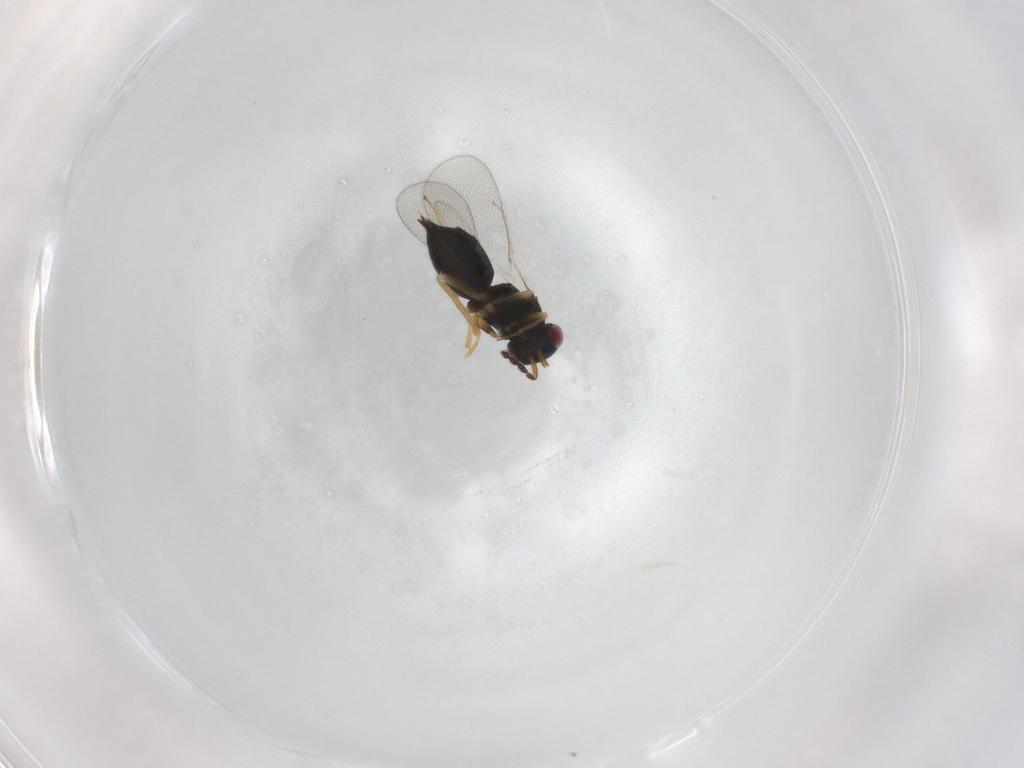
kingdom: Animalia
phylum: Arthropoda
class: Insecta
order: Hymenoptera
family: Eulophidae
